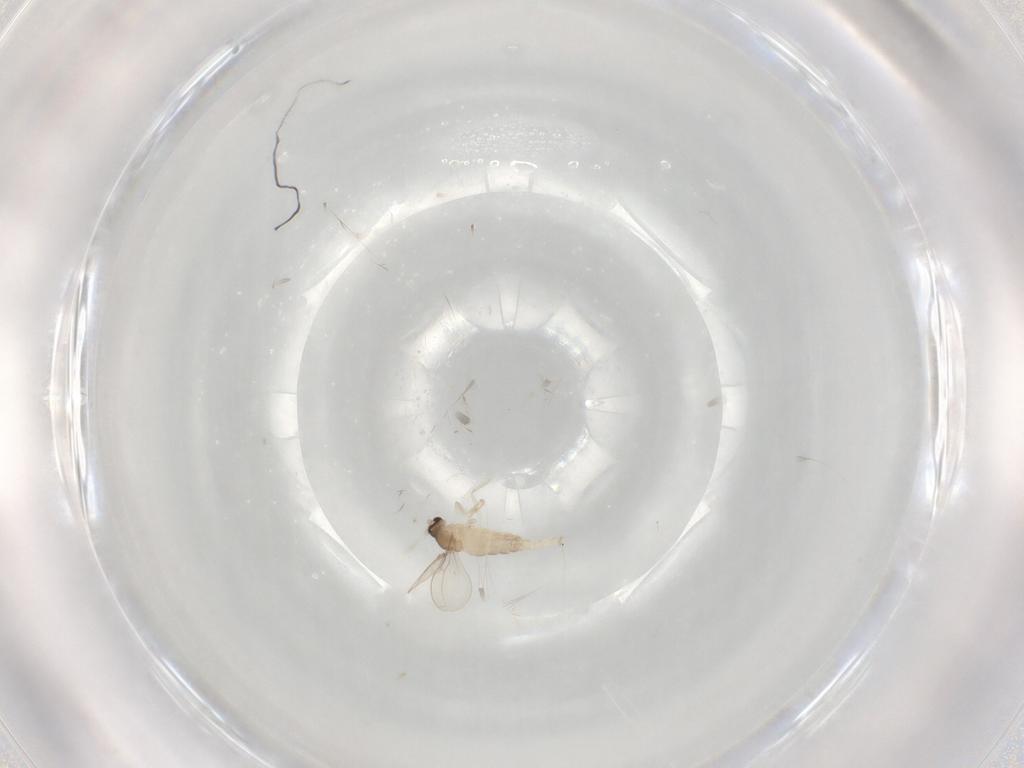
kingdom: Animalia
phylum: Arthropoda
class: Insecta
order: Diptera
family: Cecidomyiidae
